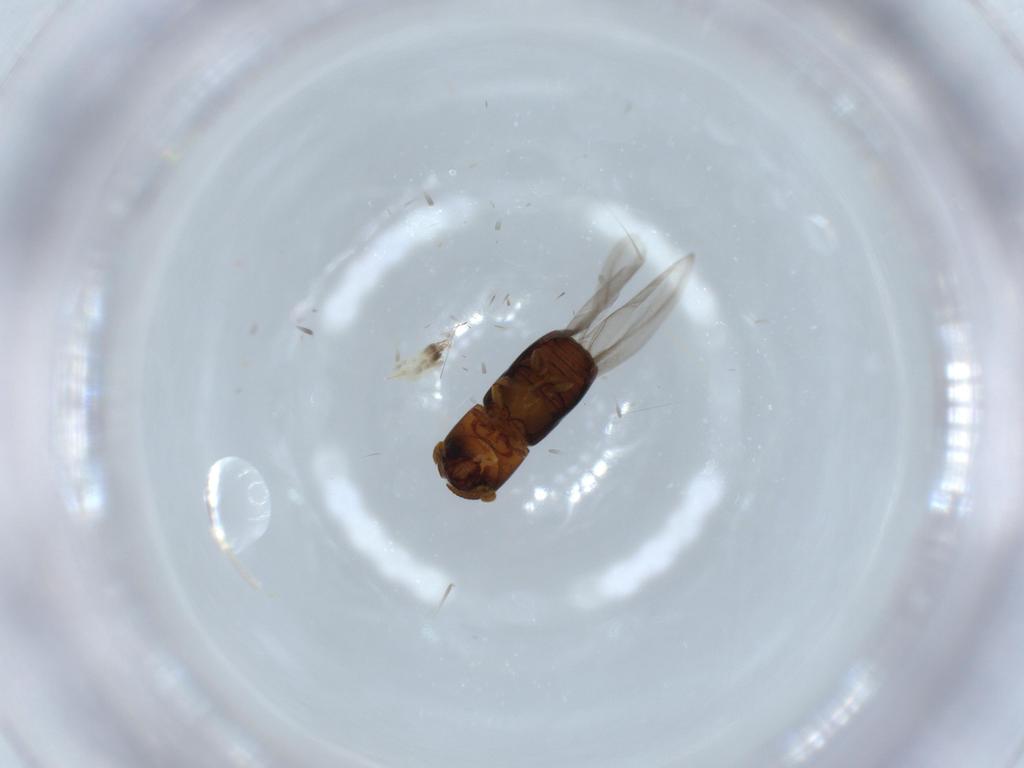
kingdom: Animalia
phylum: Arthropoda
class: Insecta
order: Coleoptera
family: Curculionidae
